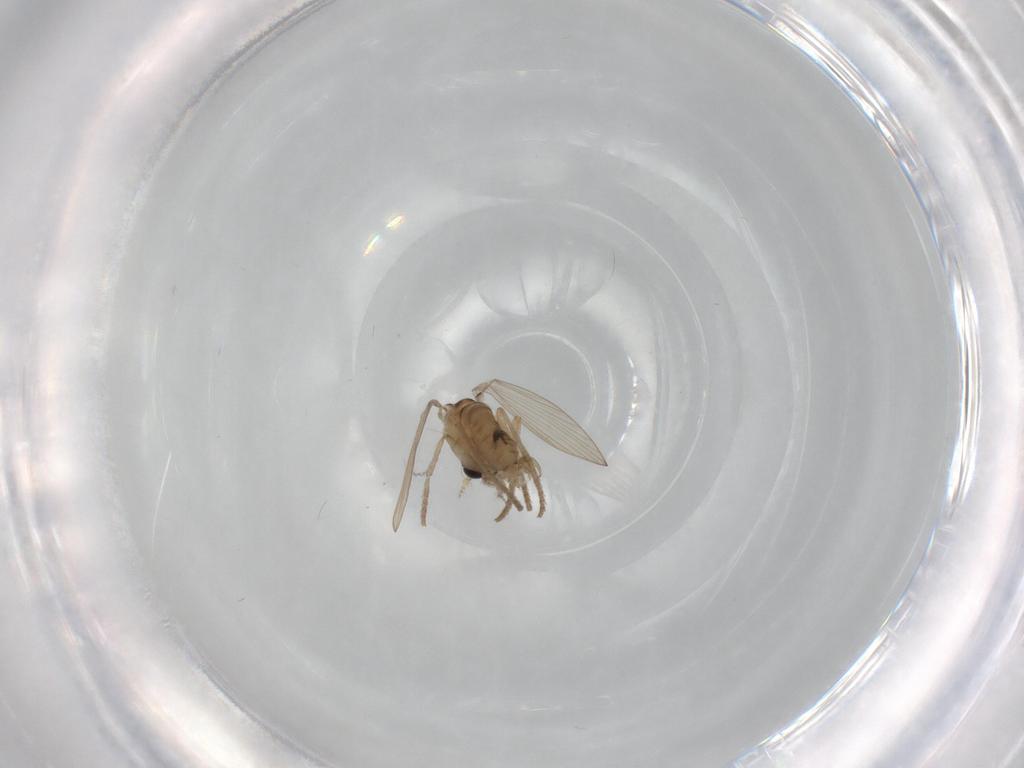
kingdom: Animalia
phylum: Arthropoda
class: Insecta
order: Diptera
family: Psychodidae
